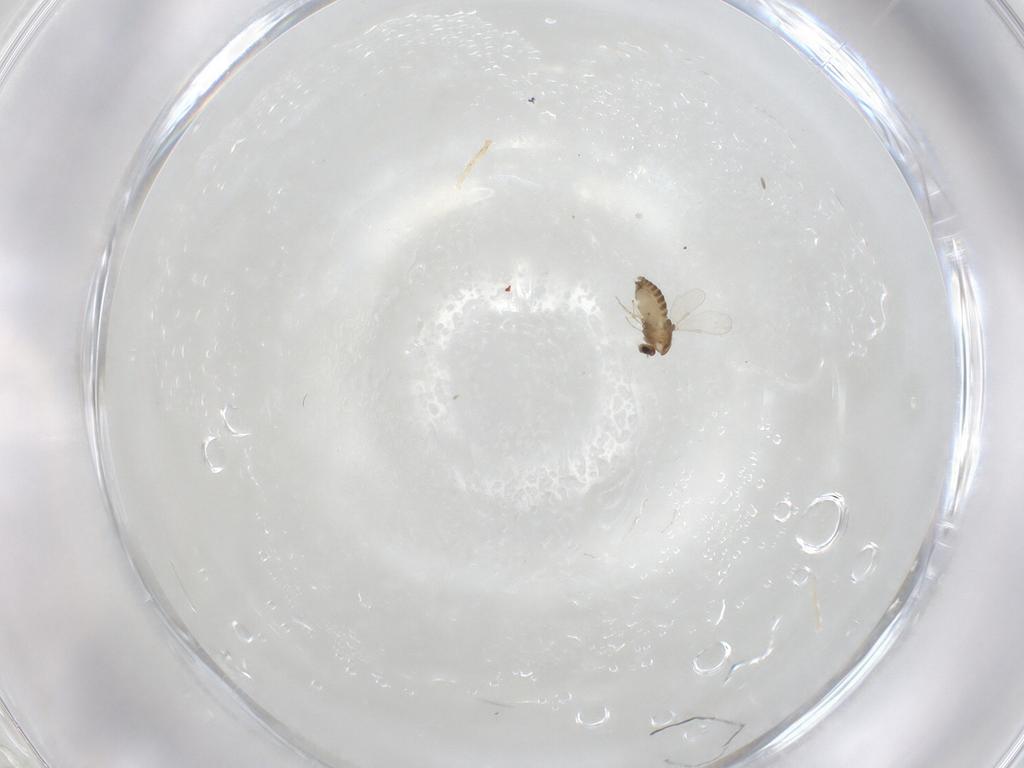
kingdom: Animalia
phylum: Arthropoda
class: Insecta
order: Diptera
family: Chironomidae
